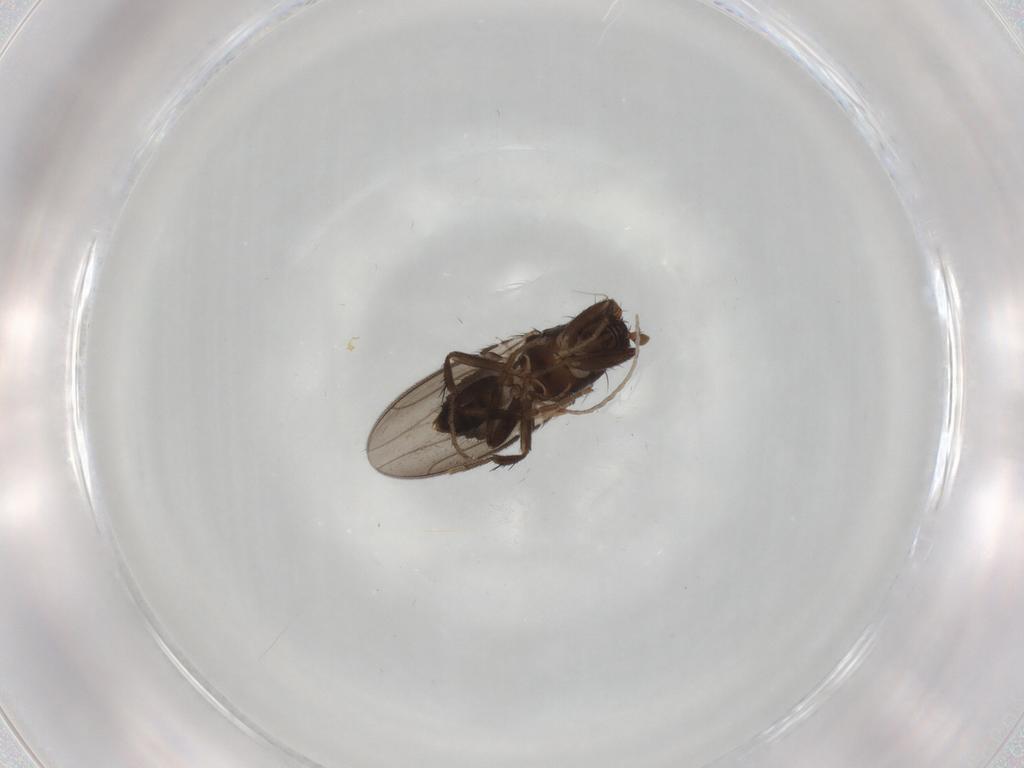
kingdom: Animalia
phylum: Arthropoda
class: Insecta
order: Diptera
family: Sphaeroceridae
